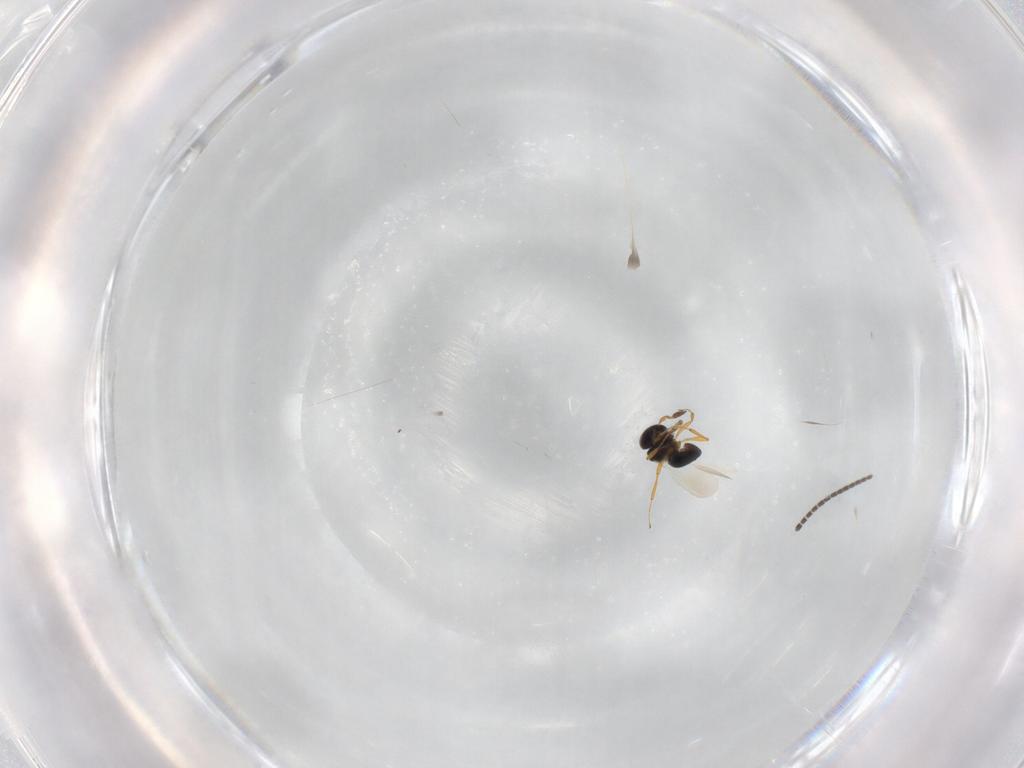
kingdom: Animalia
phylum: Arthropoda
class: Insecta
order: Hymenoptera
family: Platygastridae
